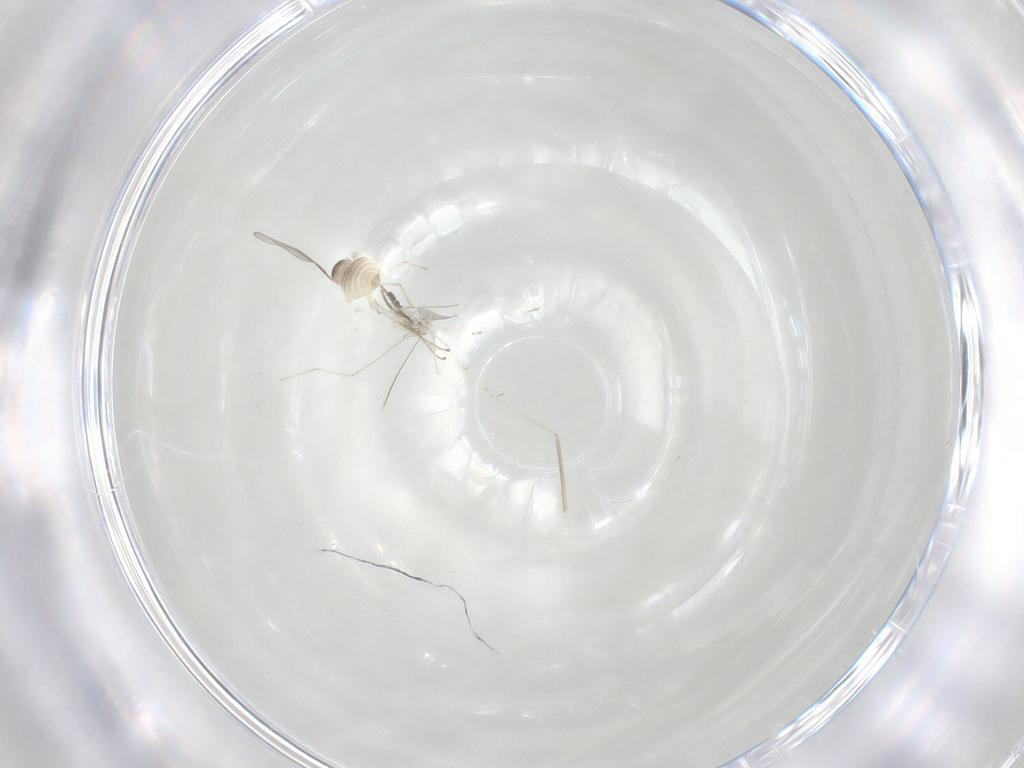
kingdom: Animalia
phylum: Arthropoda
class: Insecta
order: Diptera
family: Cecidomyiidae
